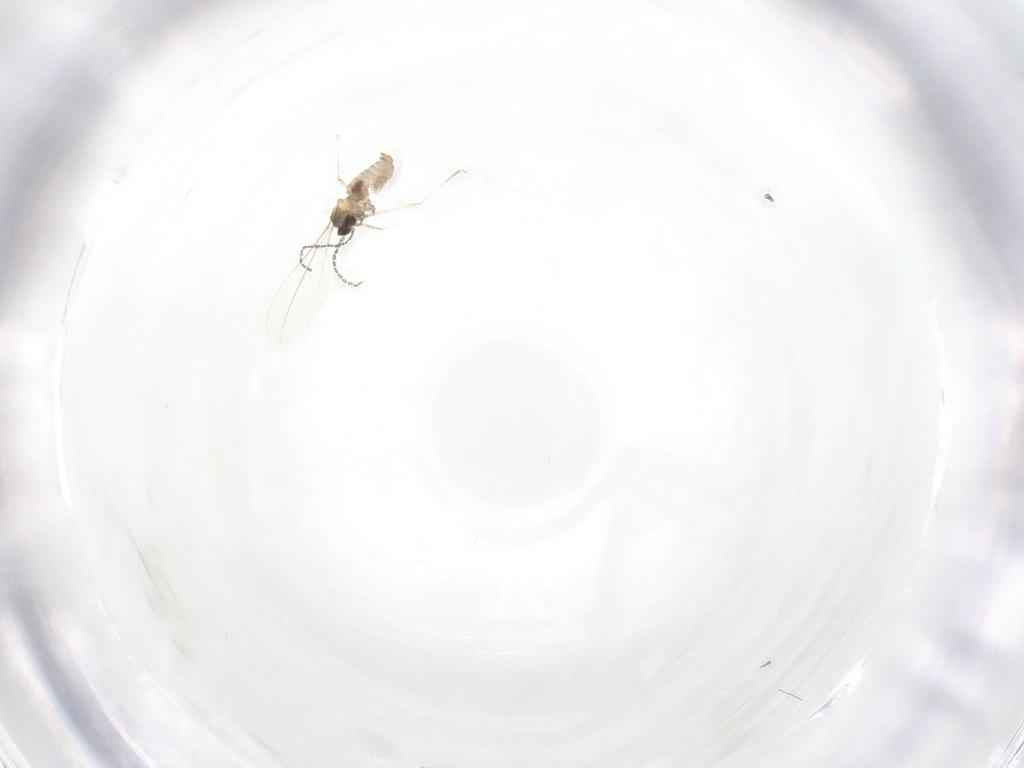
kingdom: Animalia
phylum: Arthropoda
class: Insecta
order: Diptera
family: Cecidomyiidae
